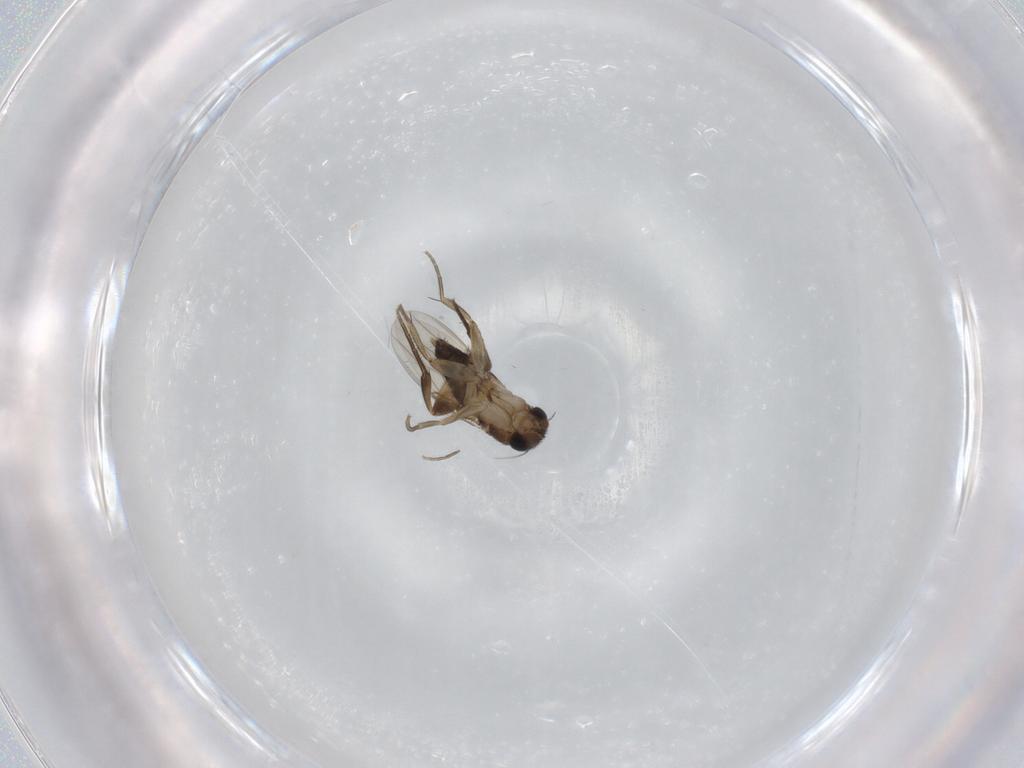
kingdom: Animalia
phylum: Arthropoda
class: Insecta
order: Diptera
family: Phoridae
